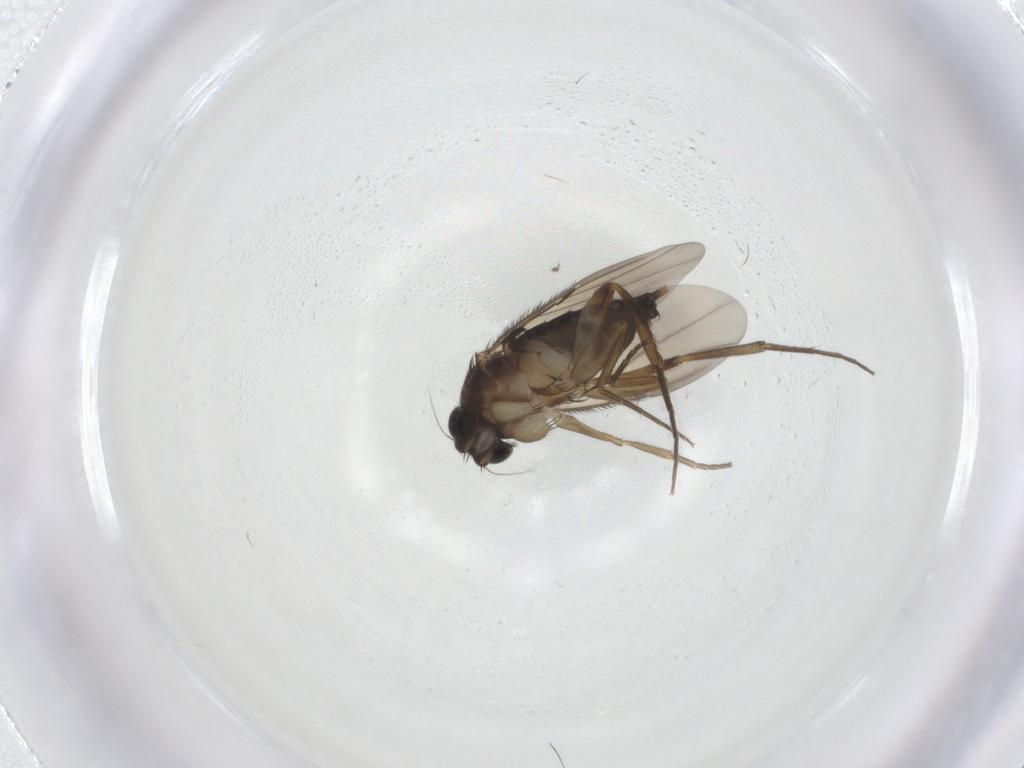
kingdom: Animalia
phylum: Arthropoda
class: Insecta
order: Diptera
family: Phoridae
